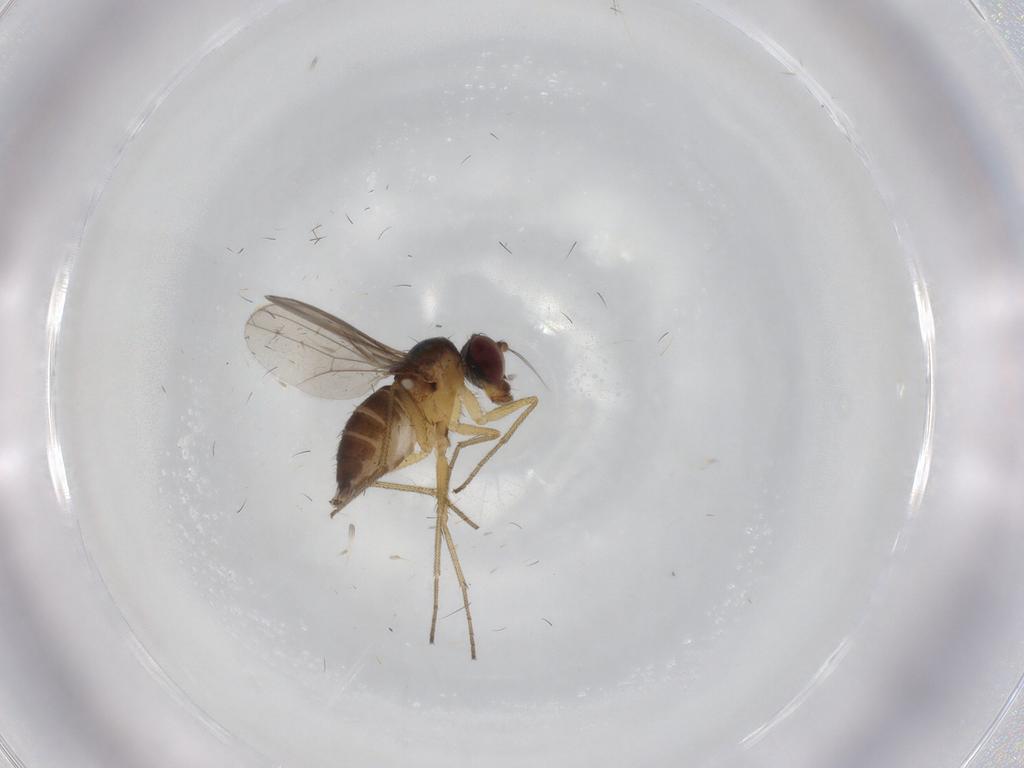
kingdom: Animalia
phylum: Arthropoda
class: Insecta
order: Diptera
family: Dolichopodidae
